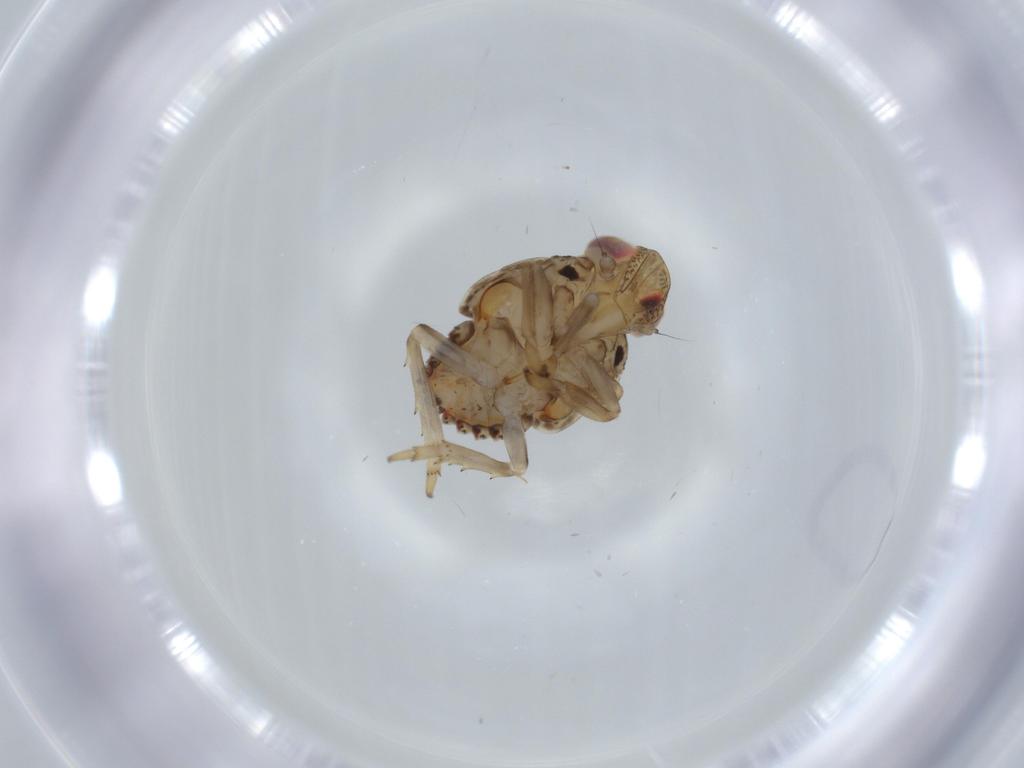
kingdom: Animalia
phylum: Arthropoda
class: Insecta
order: Hemiptera
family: Issidae
